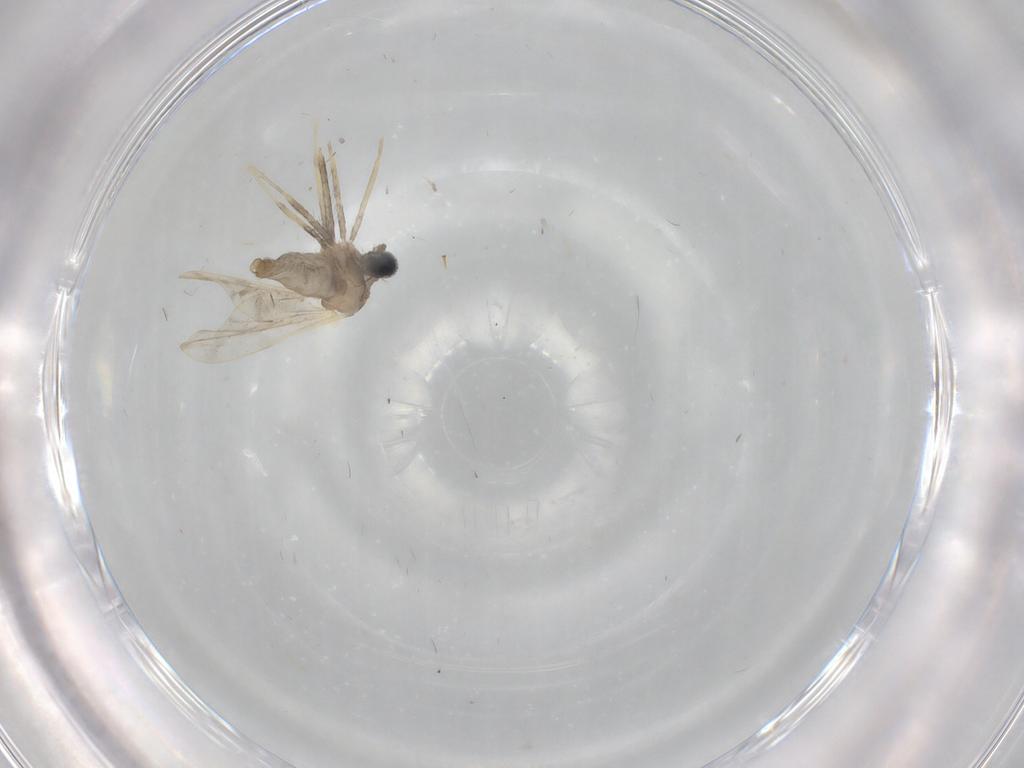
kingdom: Animalia
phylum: Arthropoda
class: Insecta
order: Diptera
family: Cecidomyiidae
